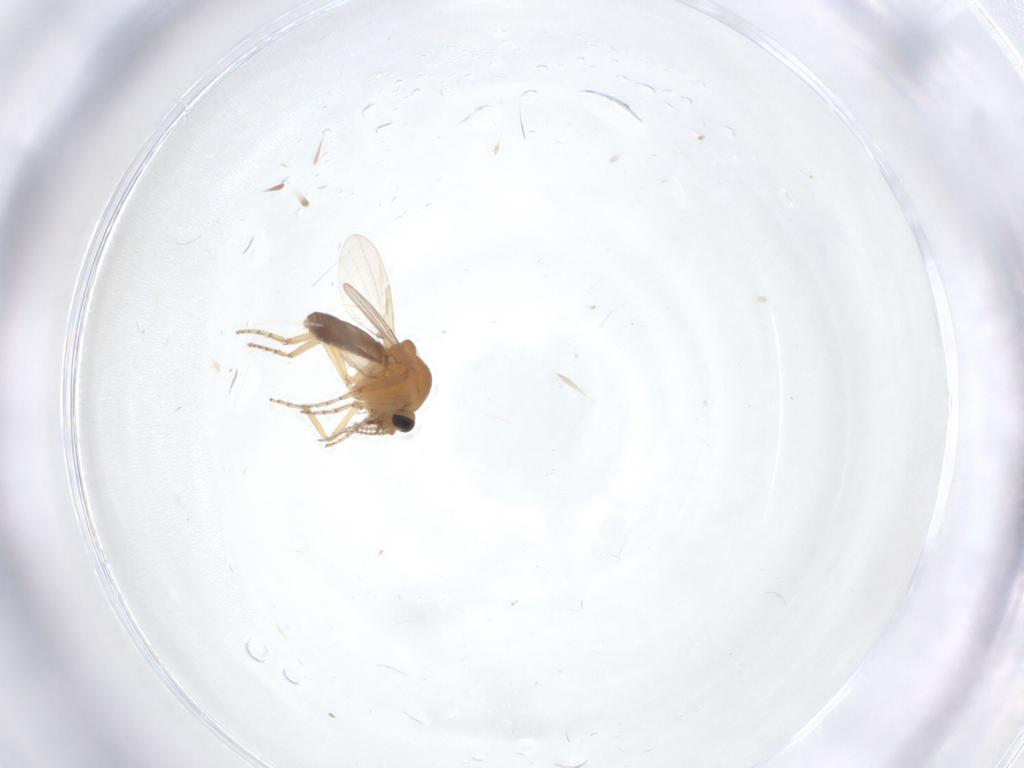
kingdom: Animalia
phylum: Arthropoda
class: Insecta
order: Diptera
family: Ceratopogonidae
